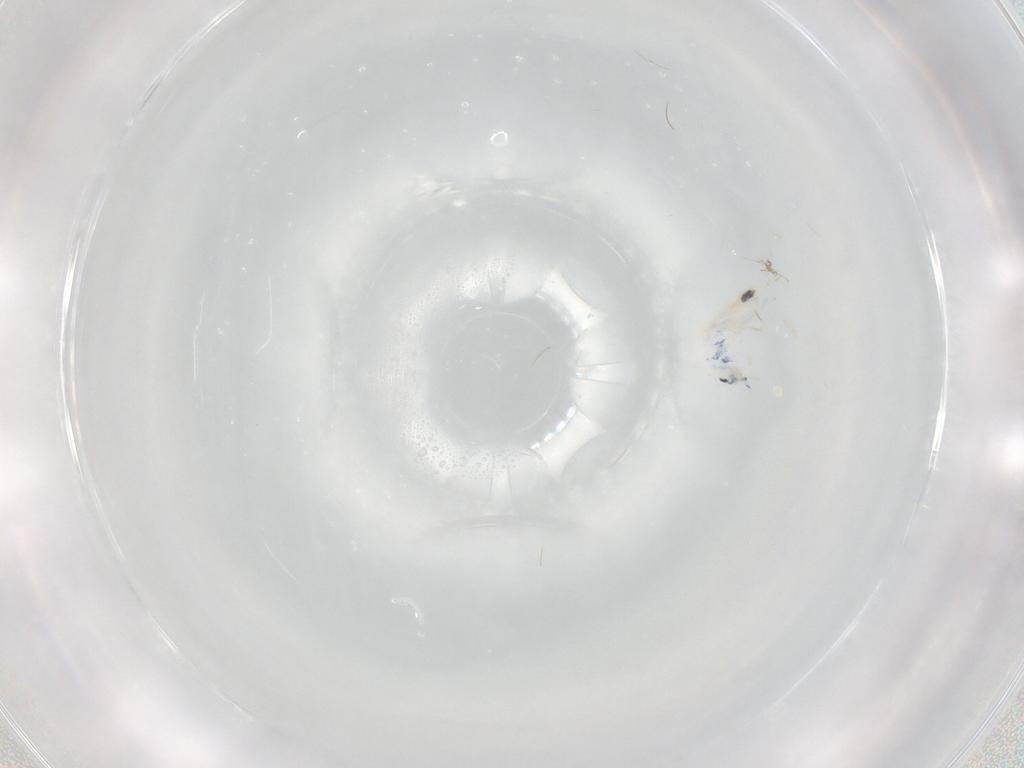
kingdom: Animalia
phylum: Arthropoda
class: Collembola
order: Entomobryomorpha
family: Entomobryidae
